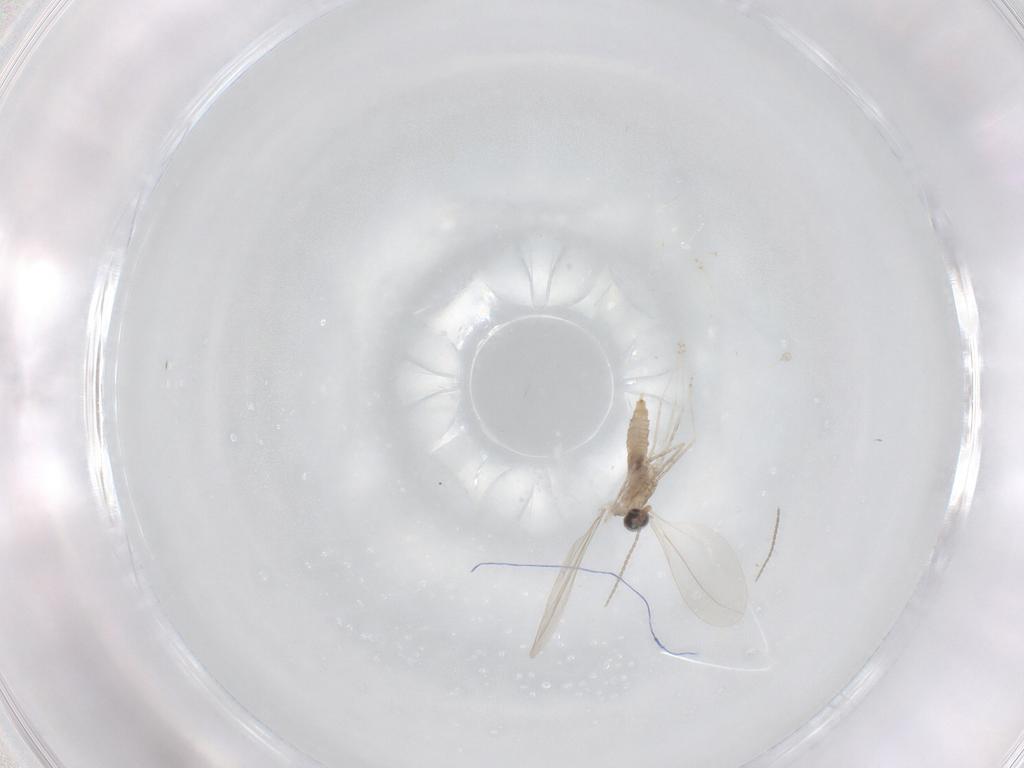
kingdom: Animalia
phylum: Arthropoda
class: Insecta
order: Diptera
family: Cecidomyiidae
